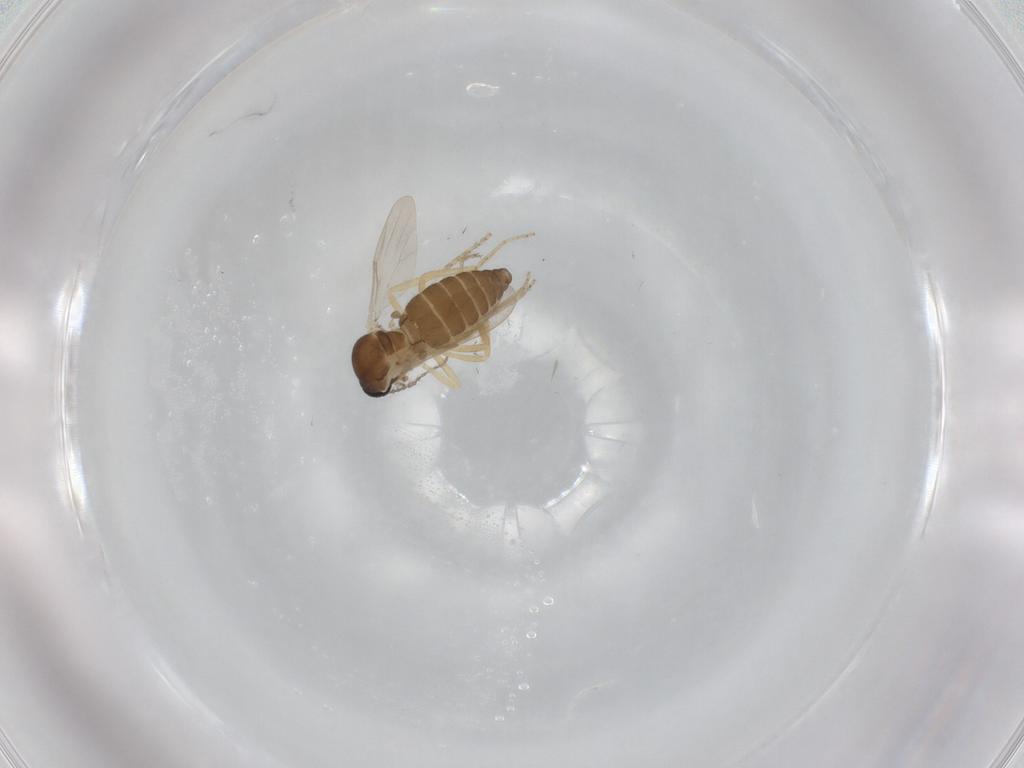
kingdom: Animalia
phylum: Arthropoda
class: Insecta
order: Diptera
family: Ceratopogonidae
